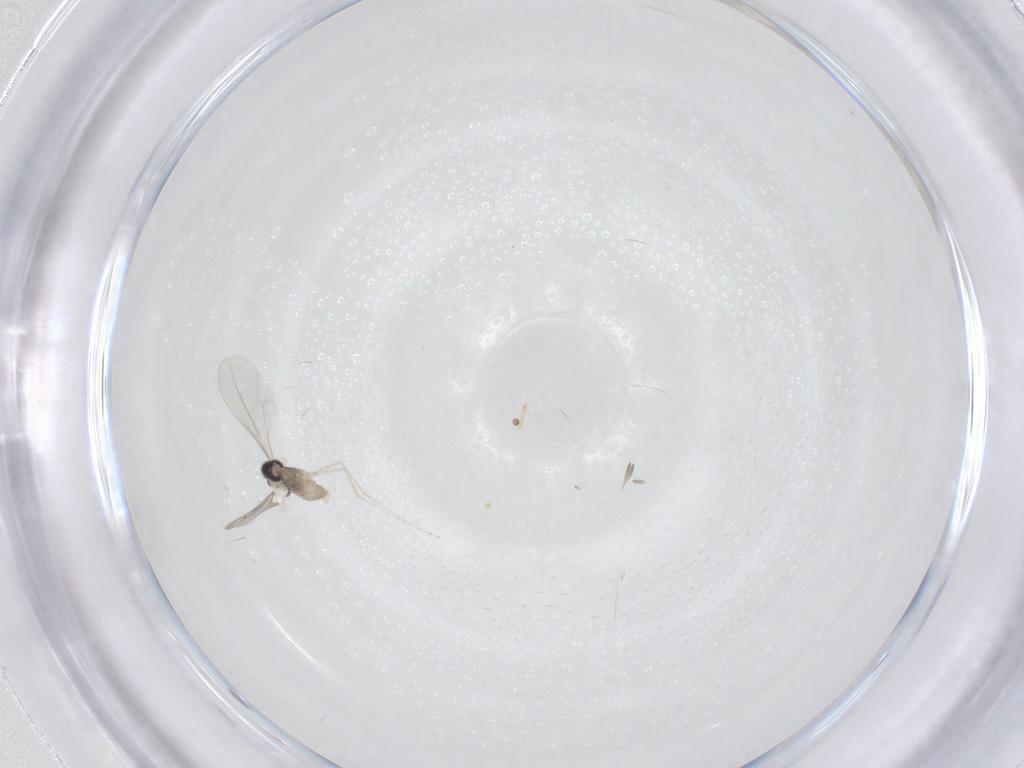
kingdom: Animalia
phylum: Arthropoda
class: Insecta
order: Diptera
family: Cecidomyiidae
